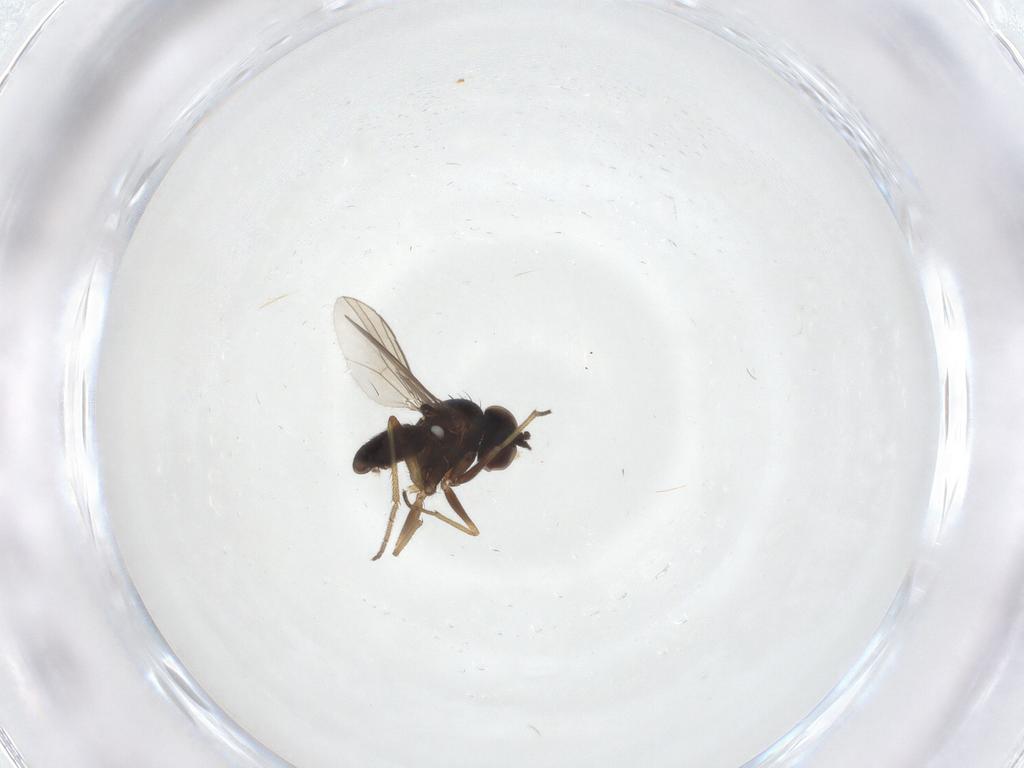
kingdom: Animalia
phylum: Arthropoda
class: Insecta
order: Diptera
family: Dolichopodidae
